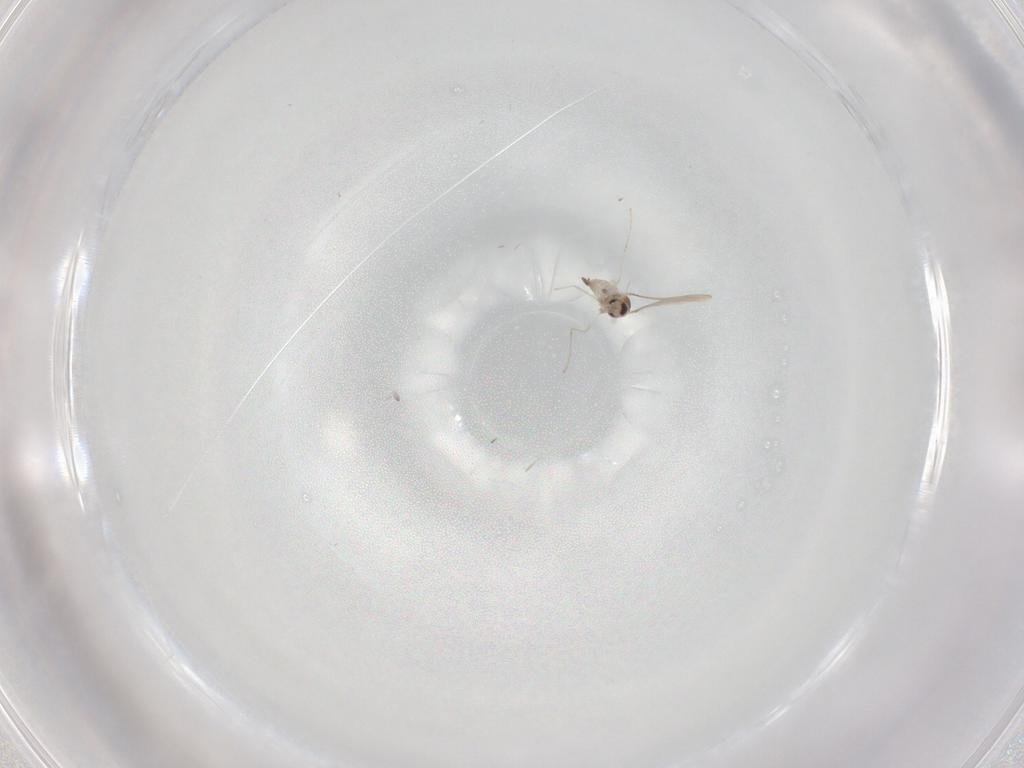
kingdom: Animalia
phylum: Arthropoda
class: Insecta
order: Diptera
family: Cecidomyiidae
